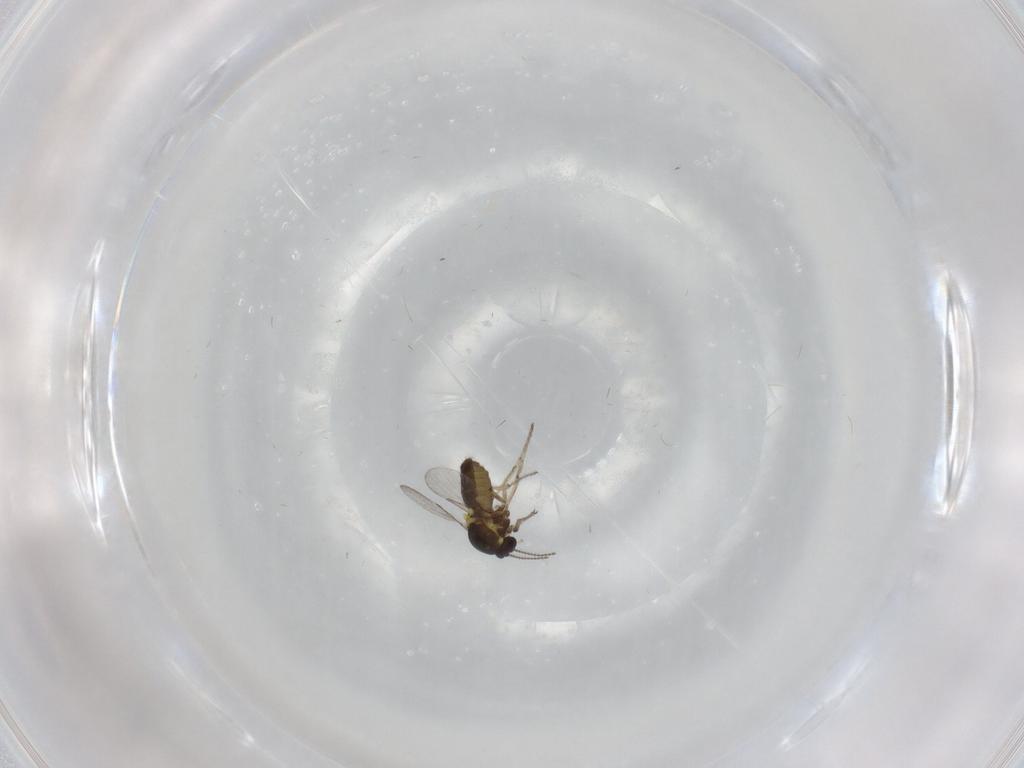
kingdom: Animalia
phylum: Arthropoda
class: Insecta
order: Diptera
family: Ceratopogonidae
